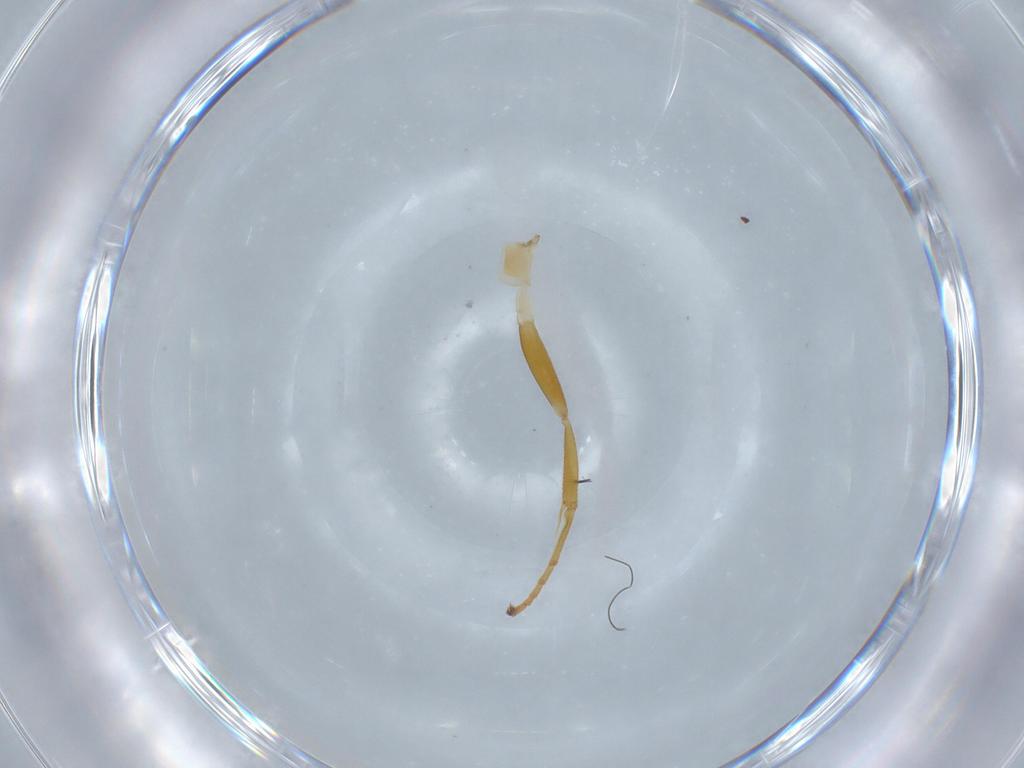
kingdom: Animalia
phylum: Arthropoda
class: Insecta
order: Hymenoptera
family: Ichneumonidae
